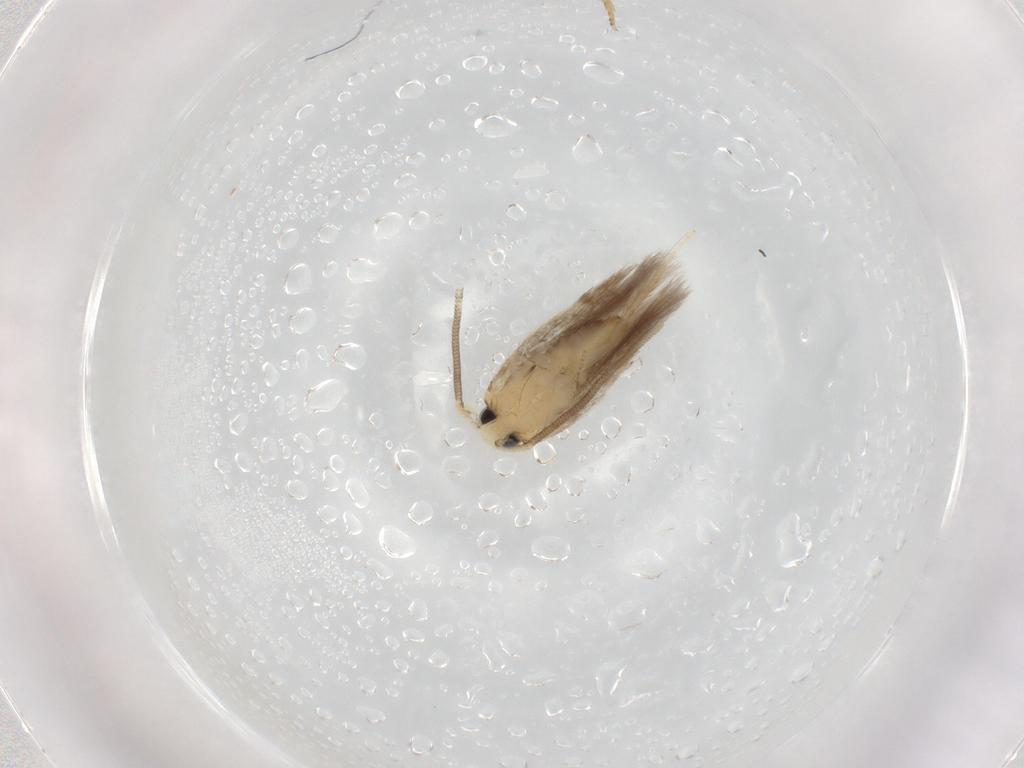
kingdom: Animalia
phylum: Arthropoda
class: Insecta
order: Lepidoptera
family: Opostegidae
